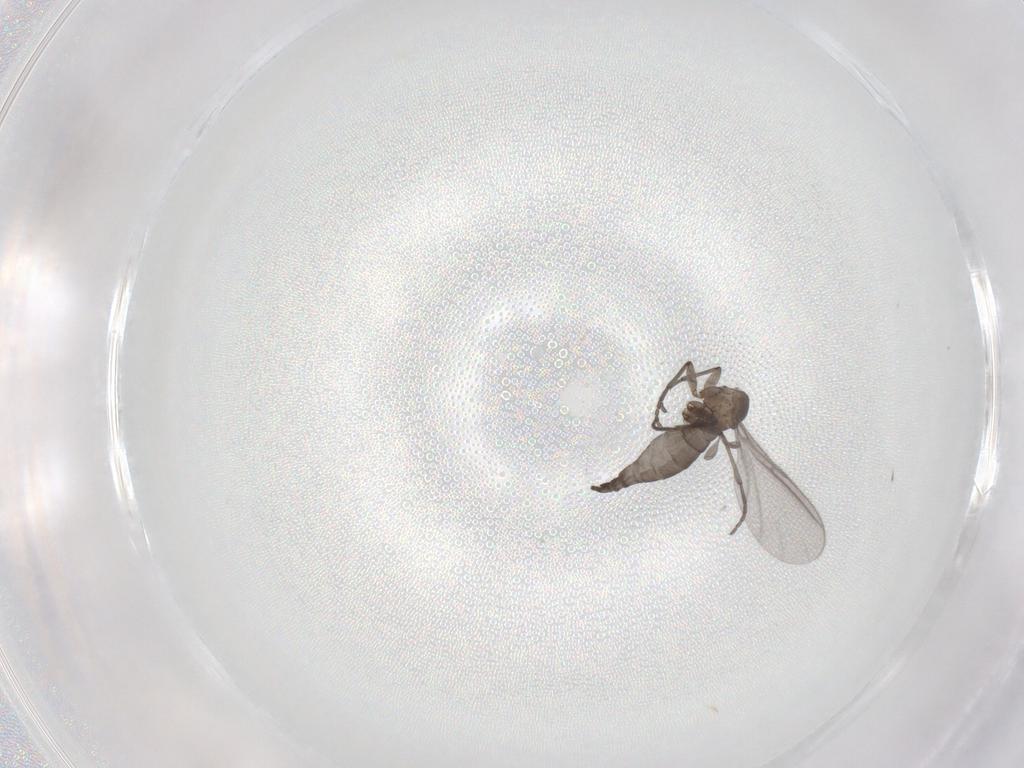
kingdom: Animalia
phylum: Arthropoda
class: Insecta
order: Diptera
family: Sciaridae
